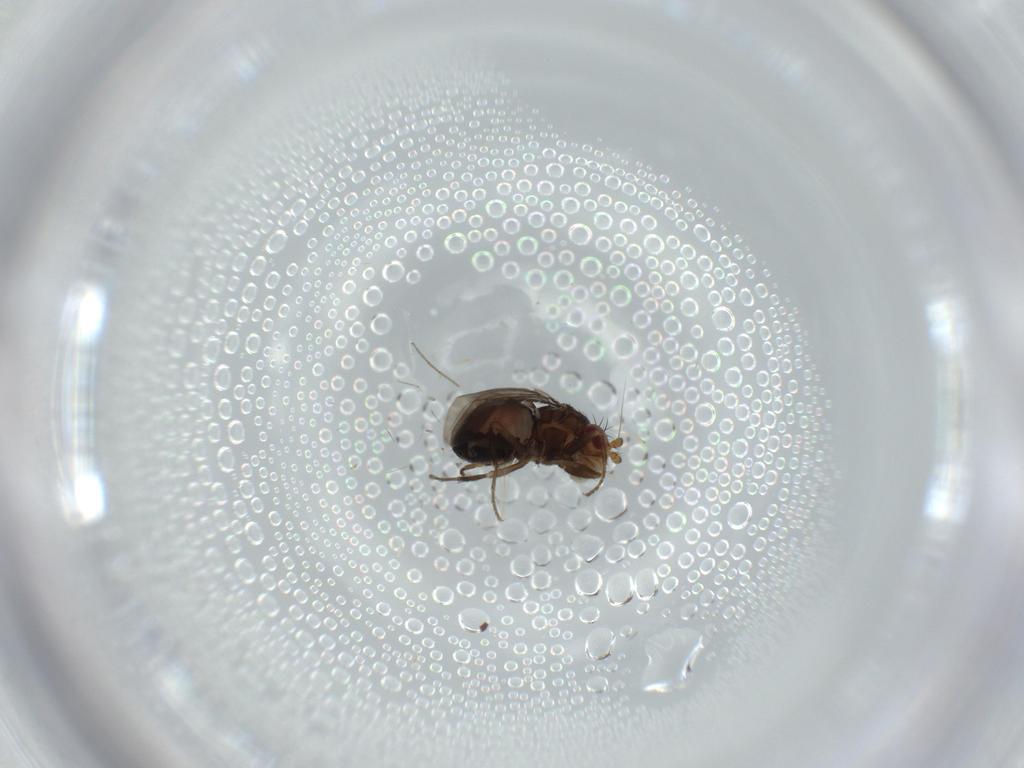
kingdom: Animalia
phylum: Arthropoda
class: Insecta
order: Diptera
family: Sphaeroceridae
